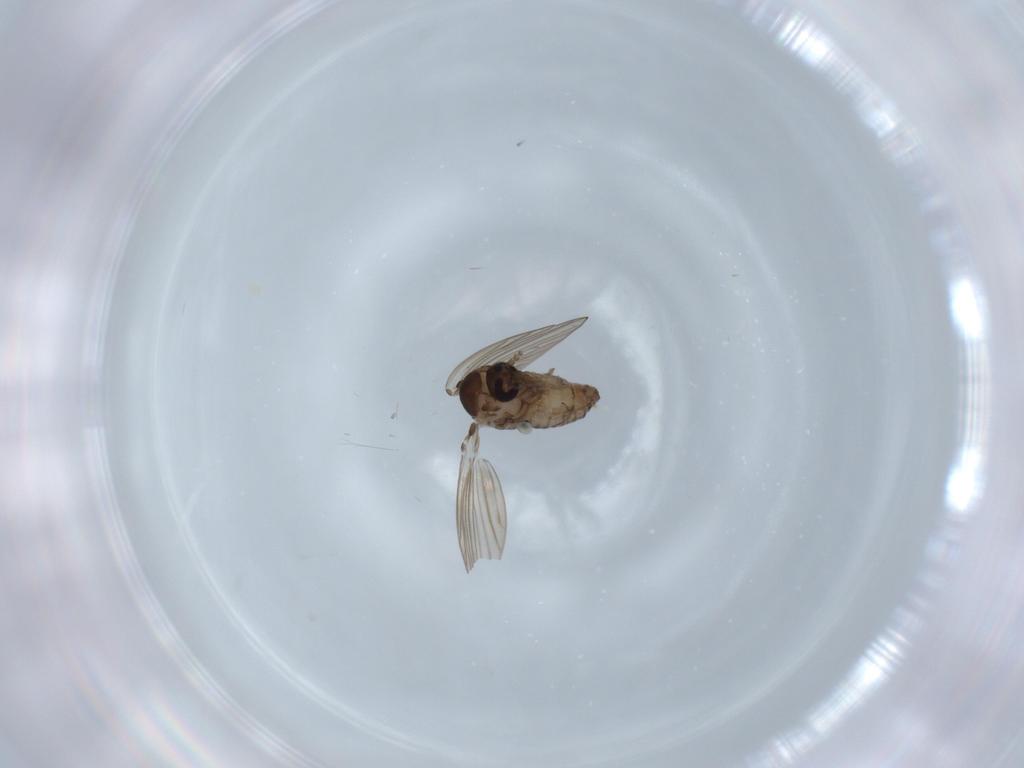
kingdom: Animalia
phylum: Arthropoda
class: Insecta
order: Diptera
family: Psychodidae
